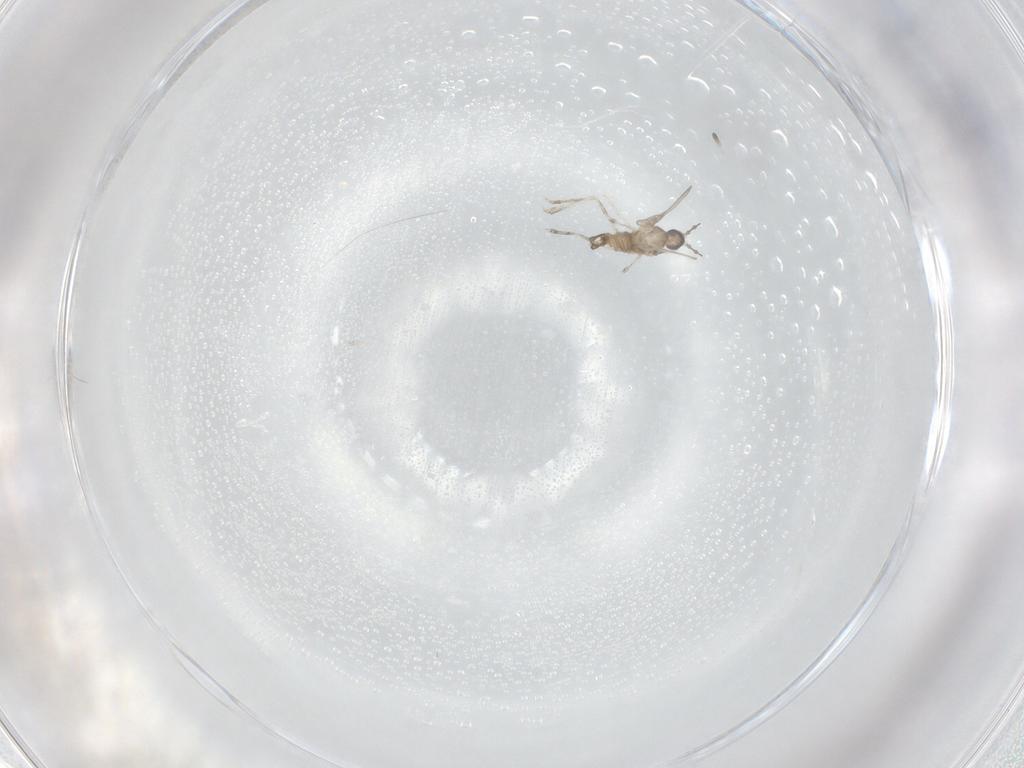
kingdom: Animalia
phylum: Arthropoda
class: Insecta
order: Diptera
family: Cecidomyiidae
